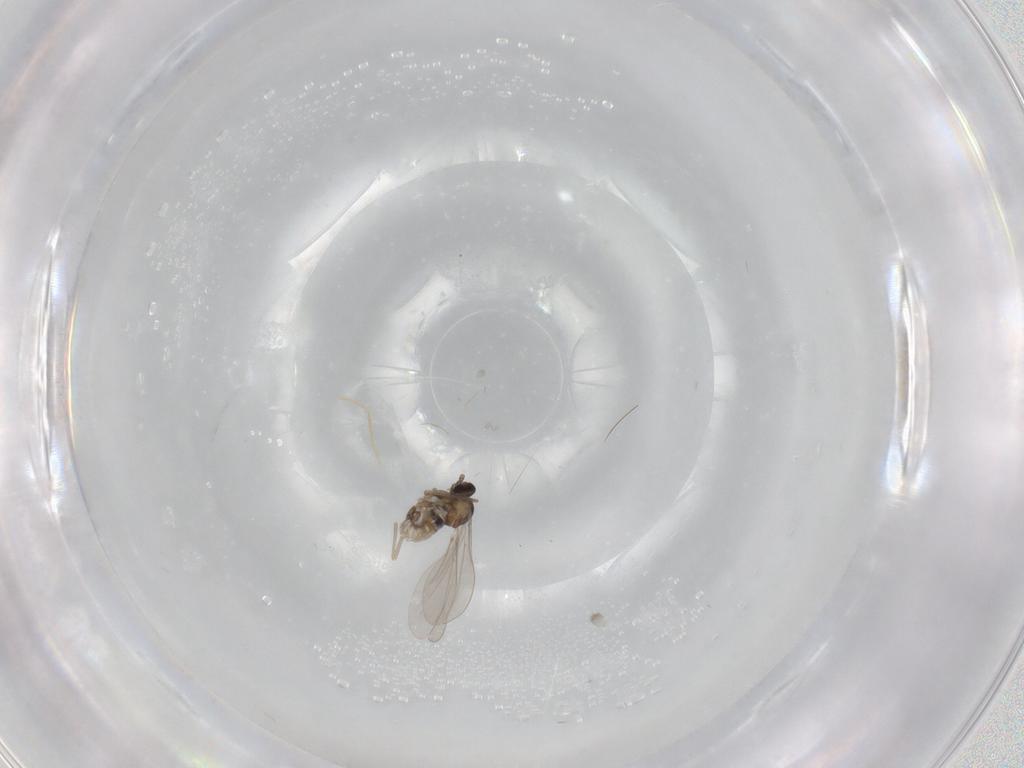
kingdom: Animalia
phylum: Arthropoda
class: Insecta
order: Diptera
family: Cecidomyiidae
